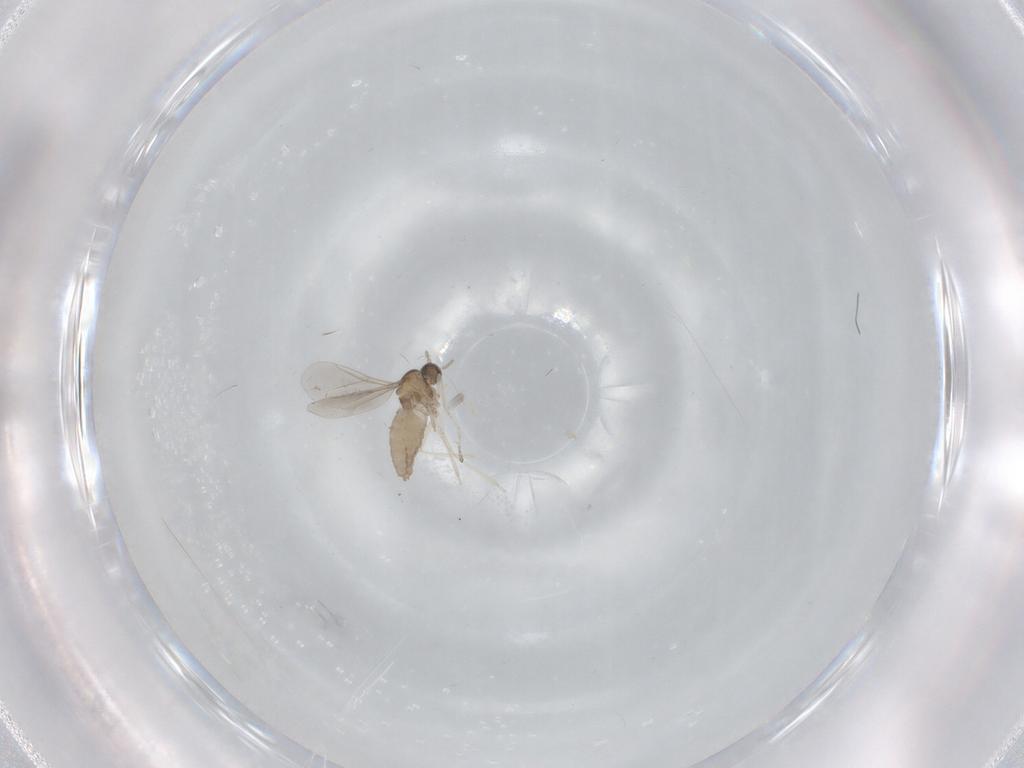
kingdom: Animalia
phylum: Arthropoda
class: Insecta
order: Diptera
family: Cecidomyiidae
